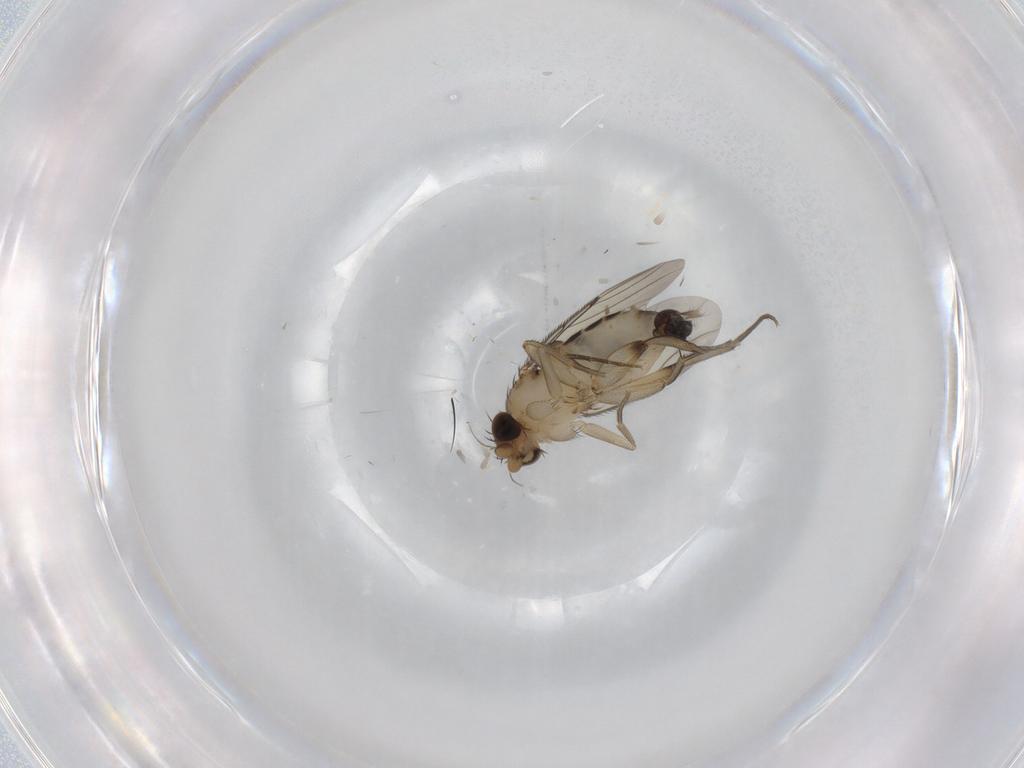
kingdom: Animalia
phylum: Arthropoda
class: Insecta
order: Diptera
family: Phoridae
